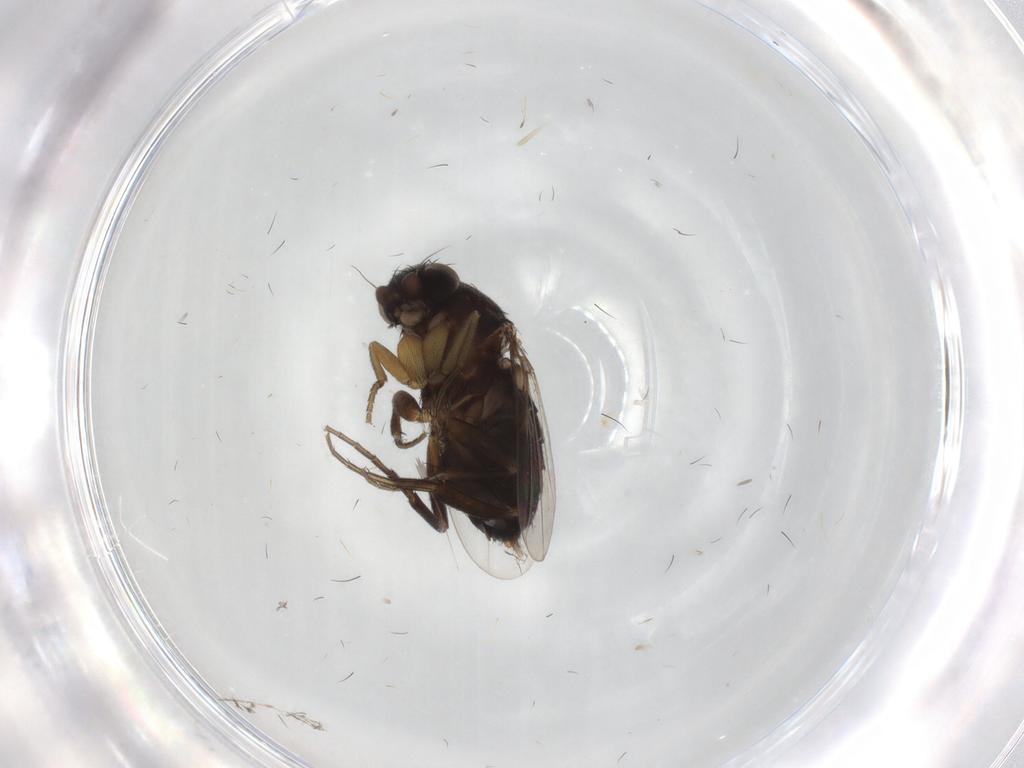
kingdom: Animalia
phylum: Arthropoda
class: Insecta
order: Diptera
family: Phoridae
